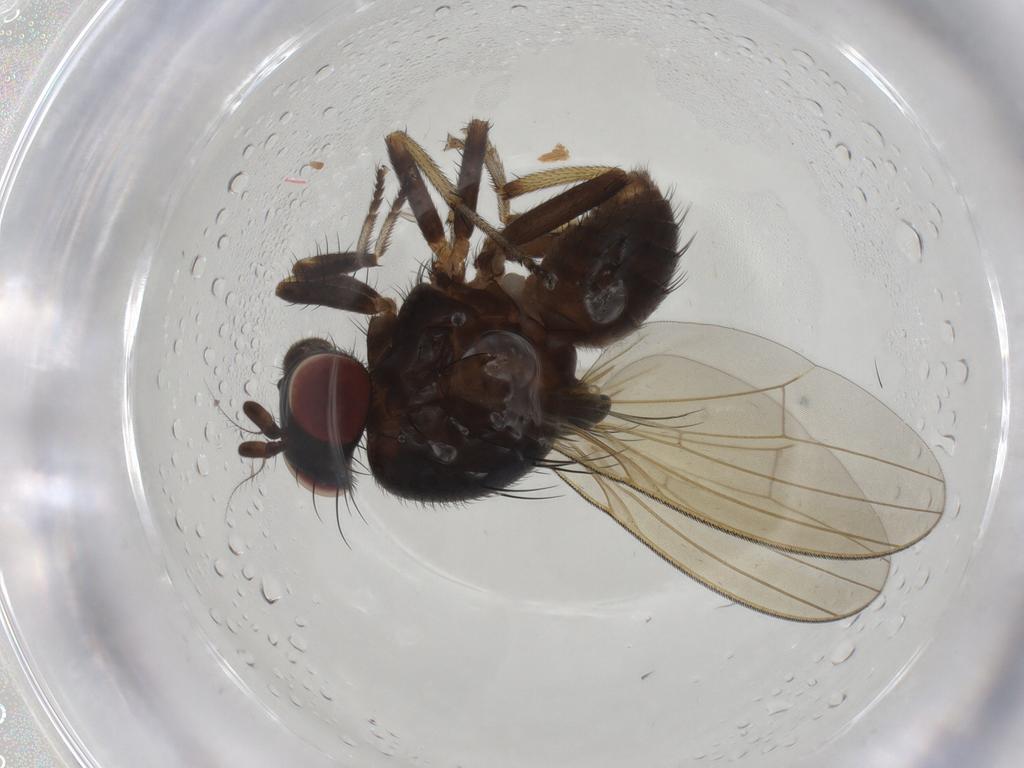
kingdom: Animalia
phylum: Arthropoda
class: Insecta
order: Diptera
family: Cecidomyiidae
